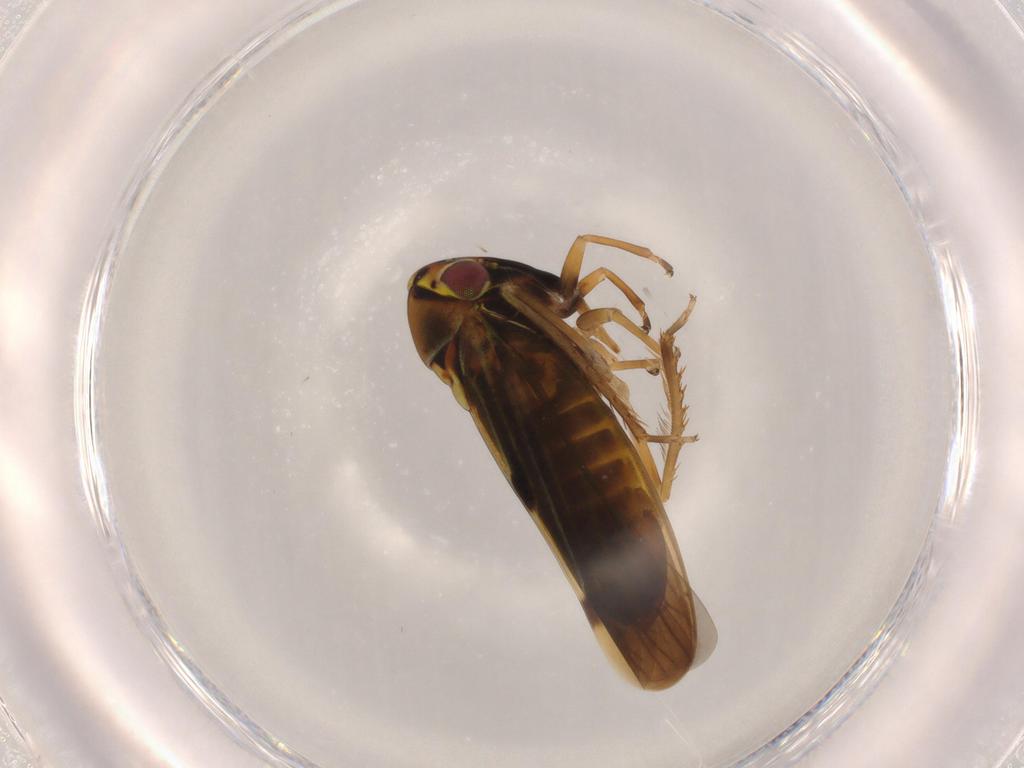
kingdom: Animalia
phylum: Arthropoda
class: Insecta
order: Hemiptera
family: Cicadellidae
